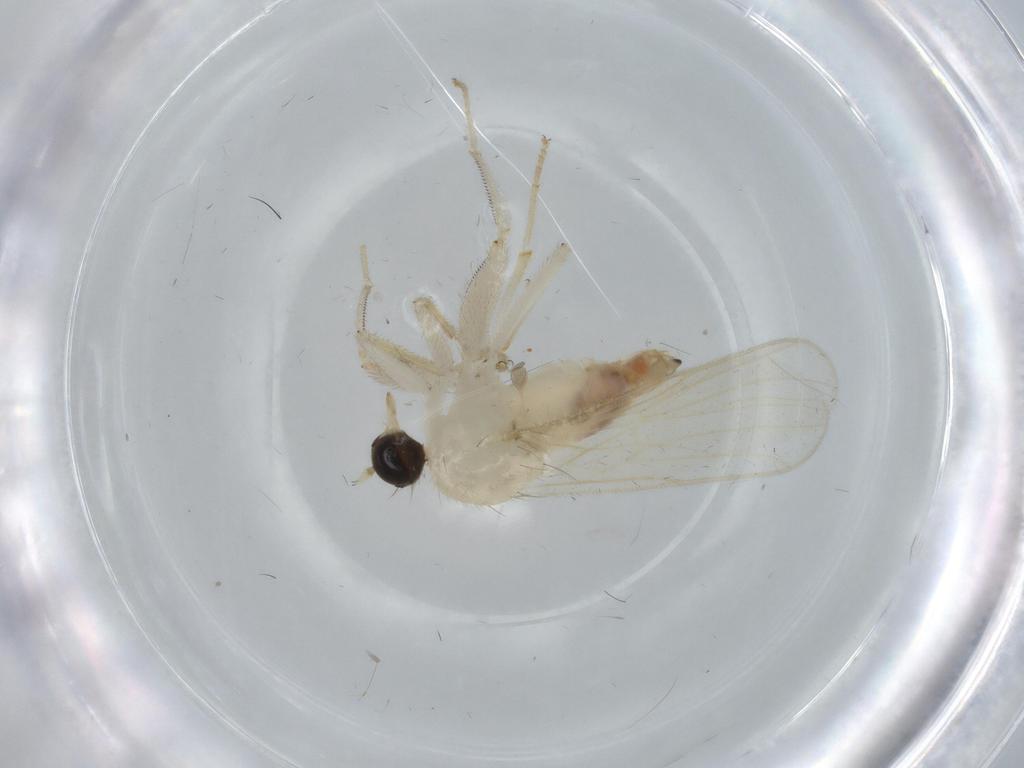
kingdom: Animalia
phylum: Arthropoda
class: Insecta
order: Diptera
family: Hybotidae
